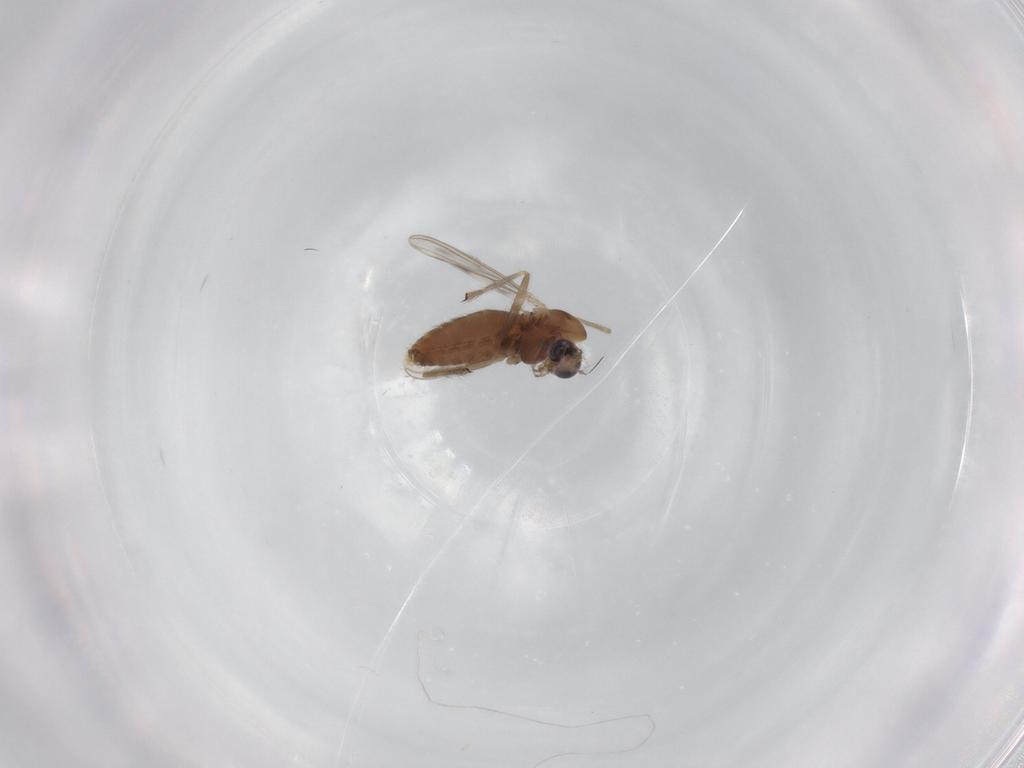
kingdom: Animalia
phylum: Arthropoda
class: Insecta
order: Diptera
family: Chironomidae
